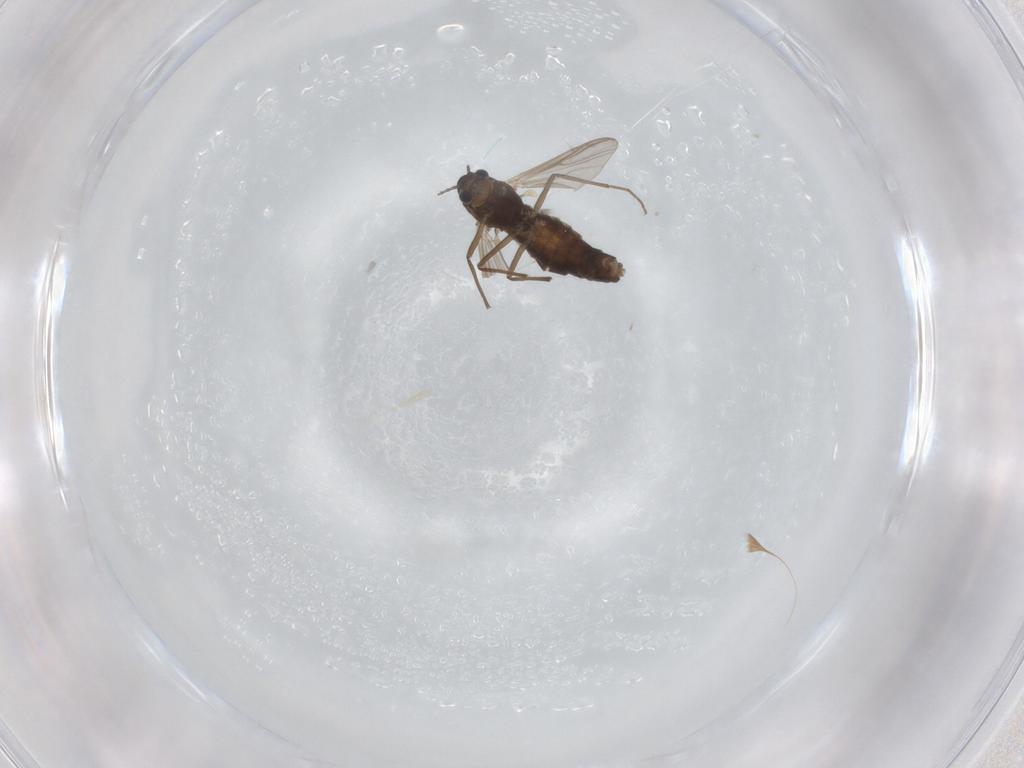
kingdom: Animalia
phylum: Arthropoda
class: Insecta
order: Diptera
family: Chironomidae
